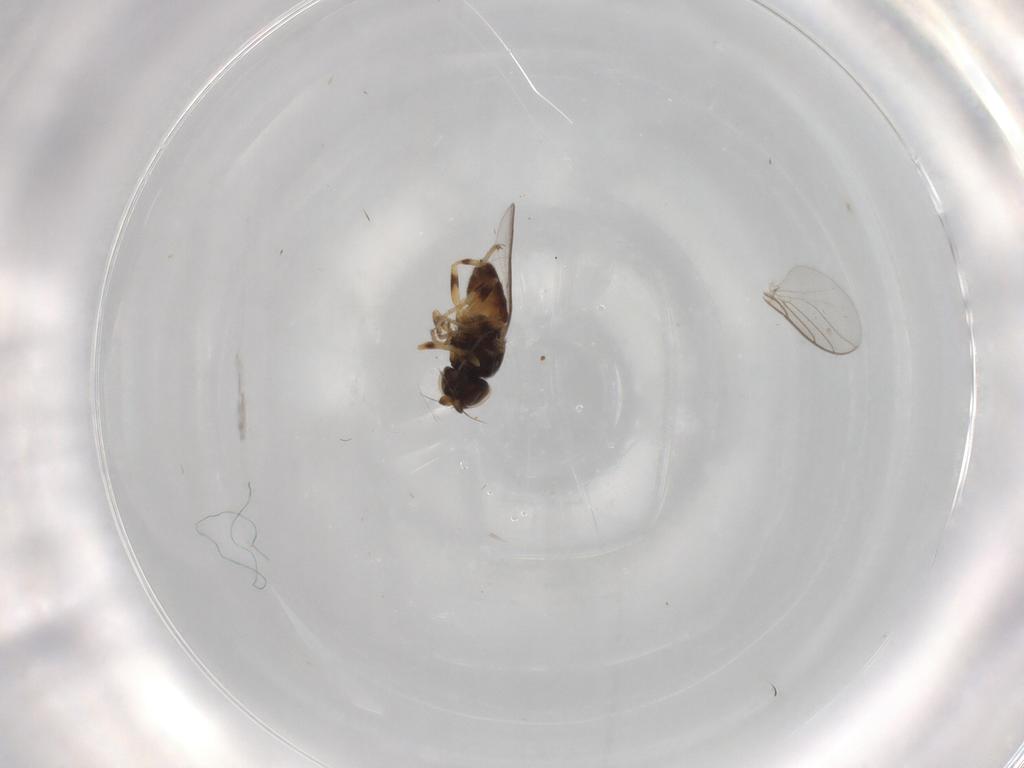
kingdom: Animalia
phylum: Arthropoda
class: Insecta
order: Diptera
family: Chloropidae
